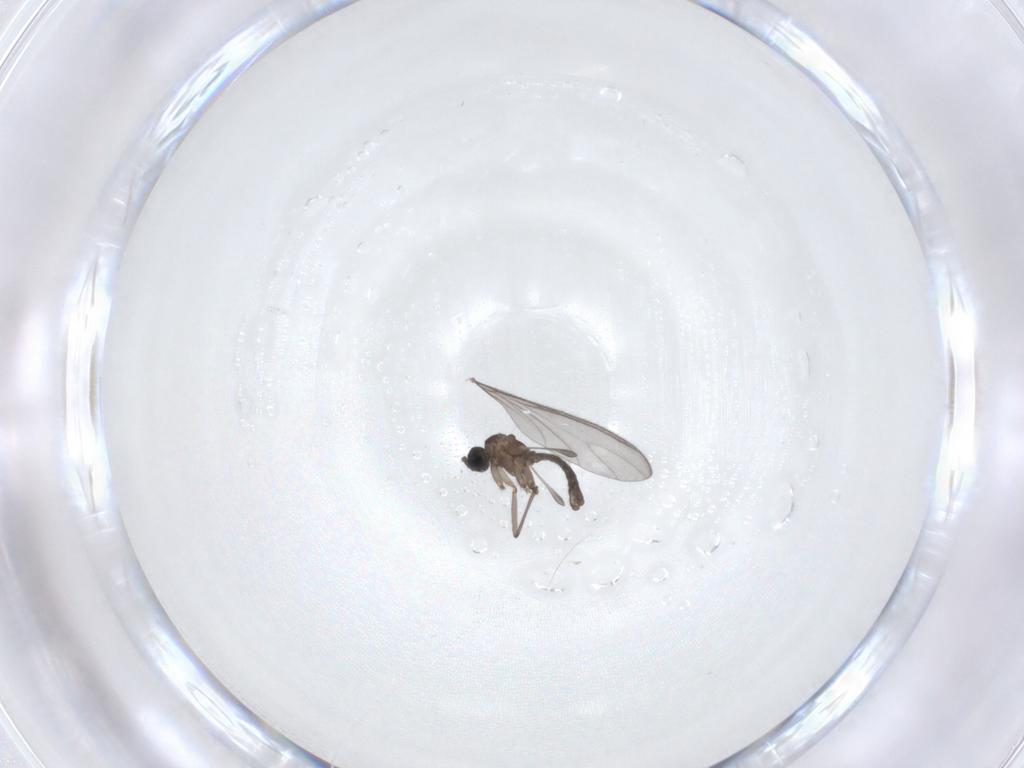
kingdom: Animalia
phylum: Arthropoda
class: Insecta
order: Diptera
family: Sciaridae
